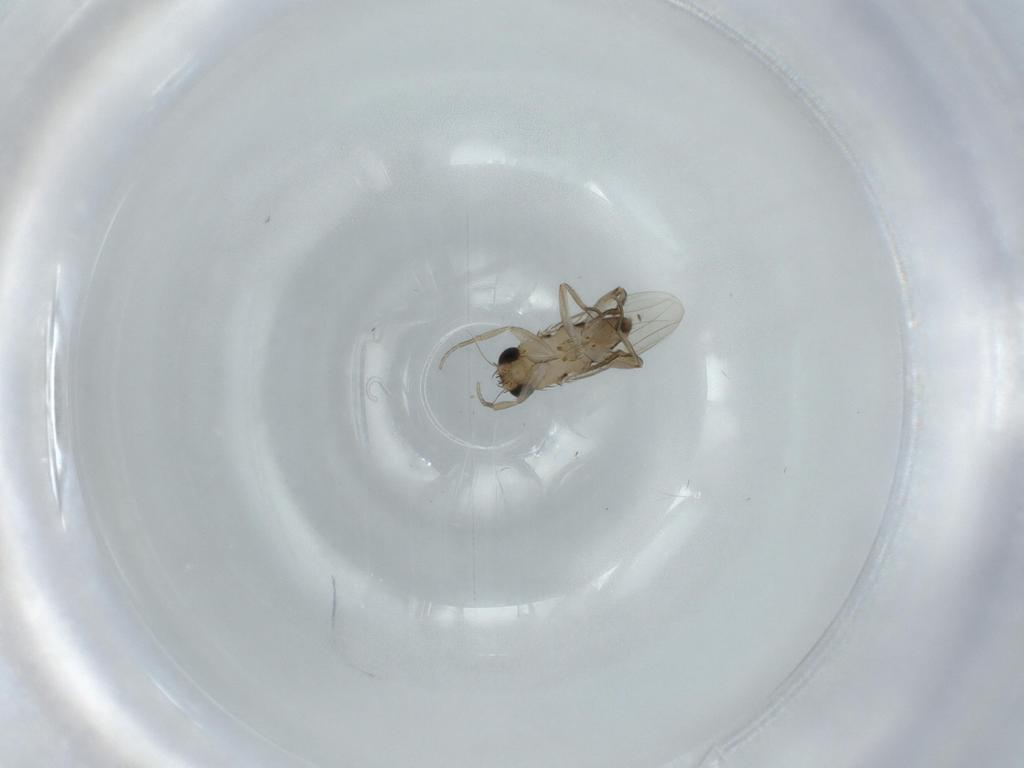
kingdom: Animalia
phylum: Arthropoda
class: Insecta
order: Diptera
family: Phoridae
